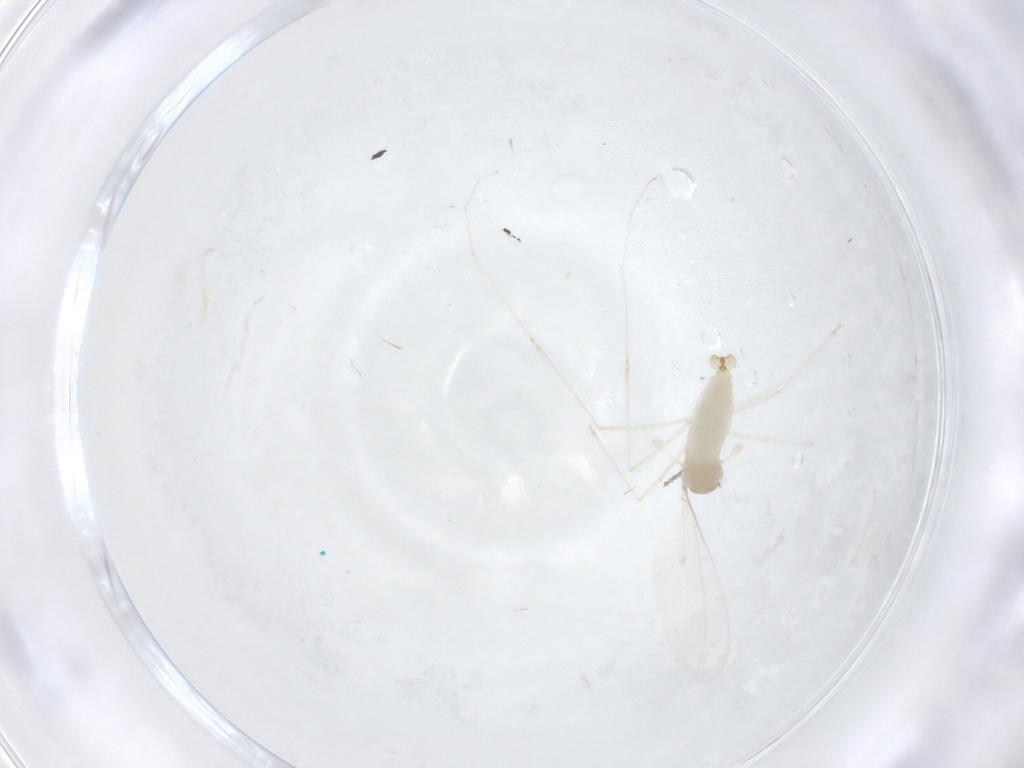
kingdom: Animalia
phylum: Arthropoda
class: Insecta
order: Diptera
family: Cecidomyiidae
